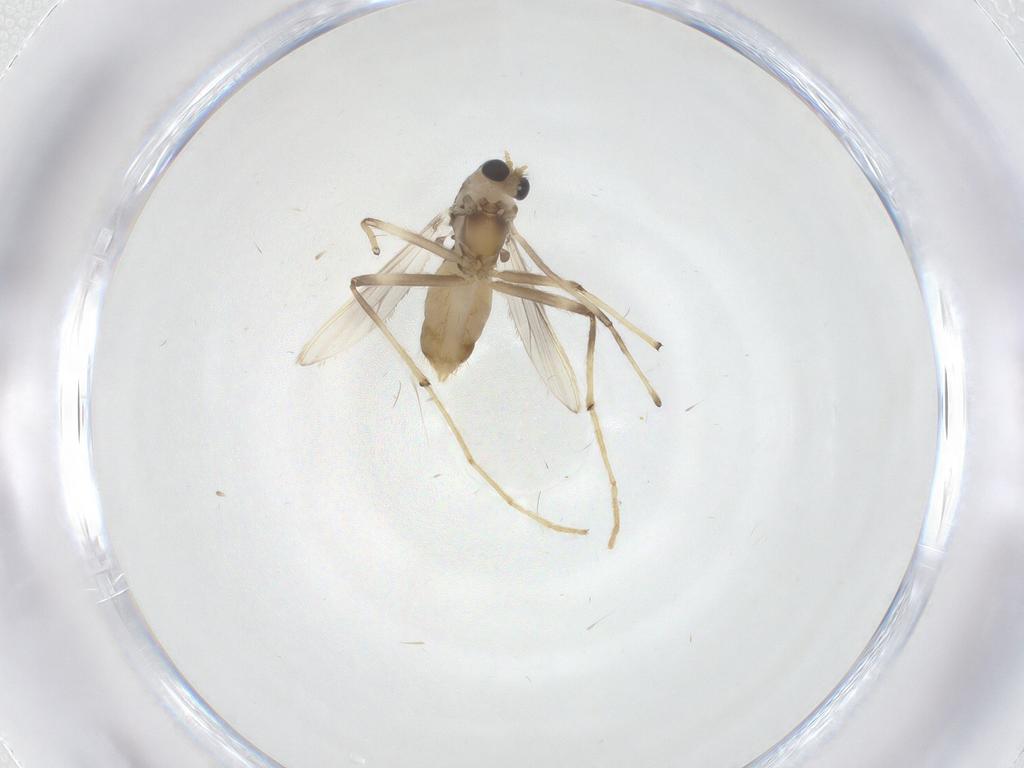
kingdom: Animalia
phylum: Arthropoda
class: Insecta
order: Diptera
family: Chironomidae
